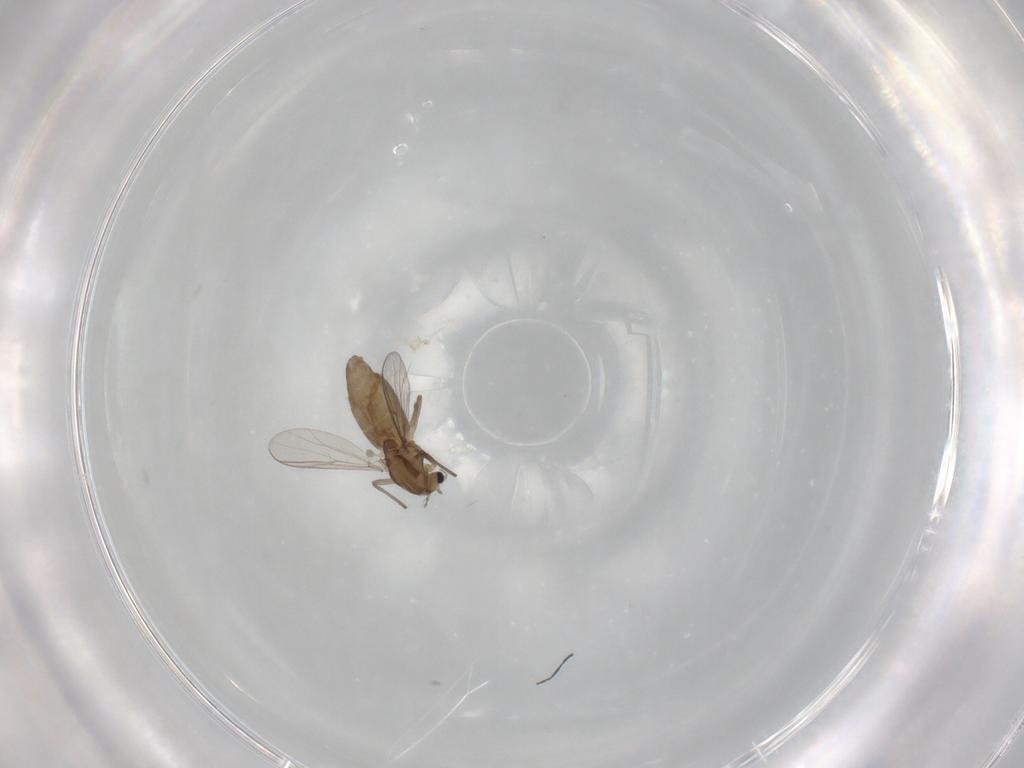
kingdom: Animalia
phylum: Arthropoda
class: Insecta
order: Diptera
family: Chironomidae
